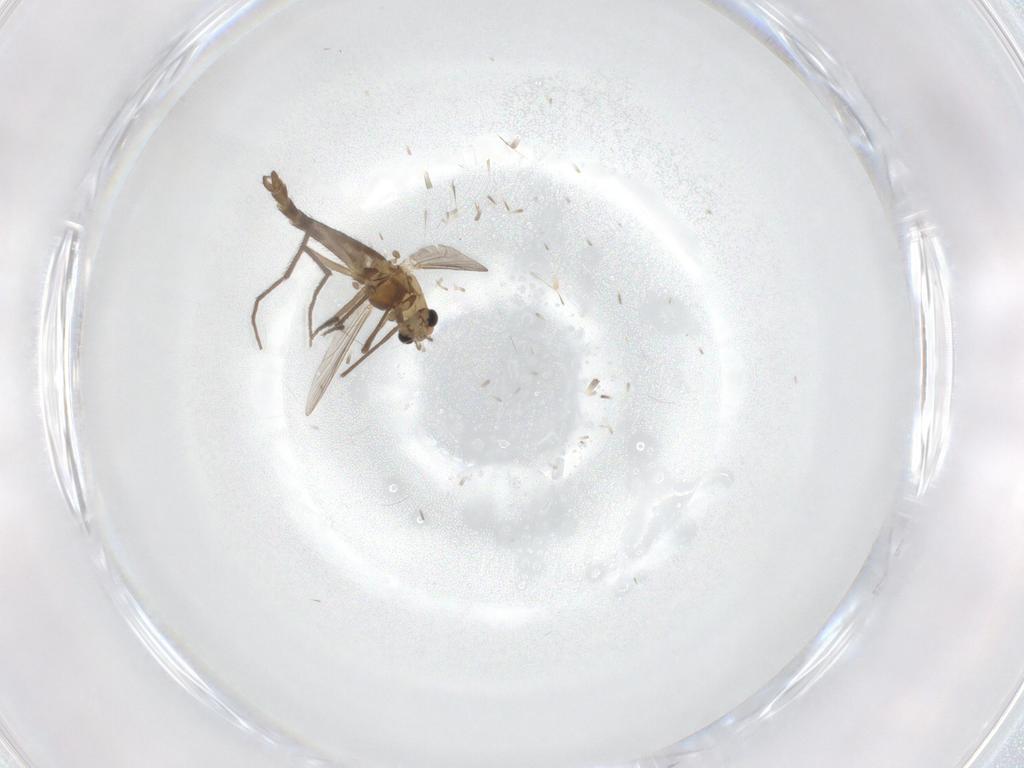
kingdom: Animalia
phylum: Arthropoda
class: Insecta
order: Diptera
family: Chironomidae
